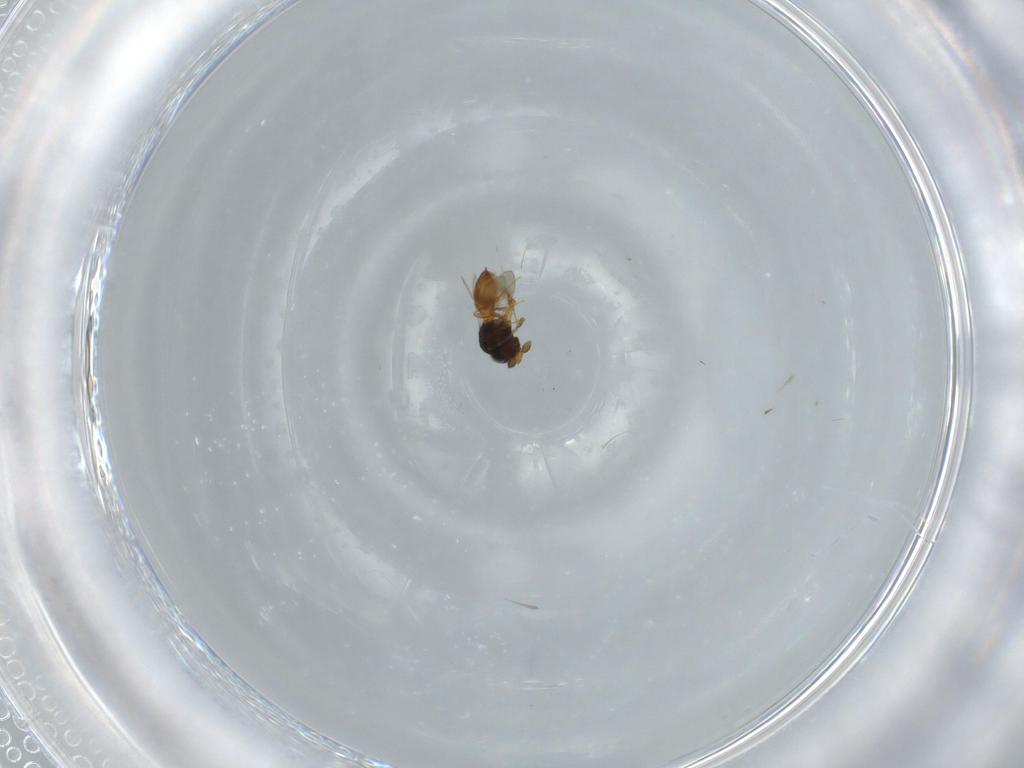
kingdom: Animalia
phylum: Arthropoda
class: Insecta
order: Hymenoptera
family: Scelionidae
